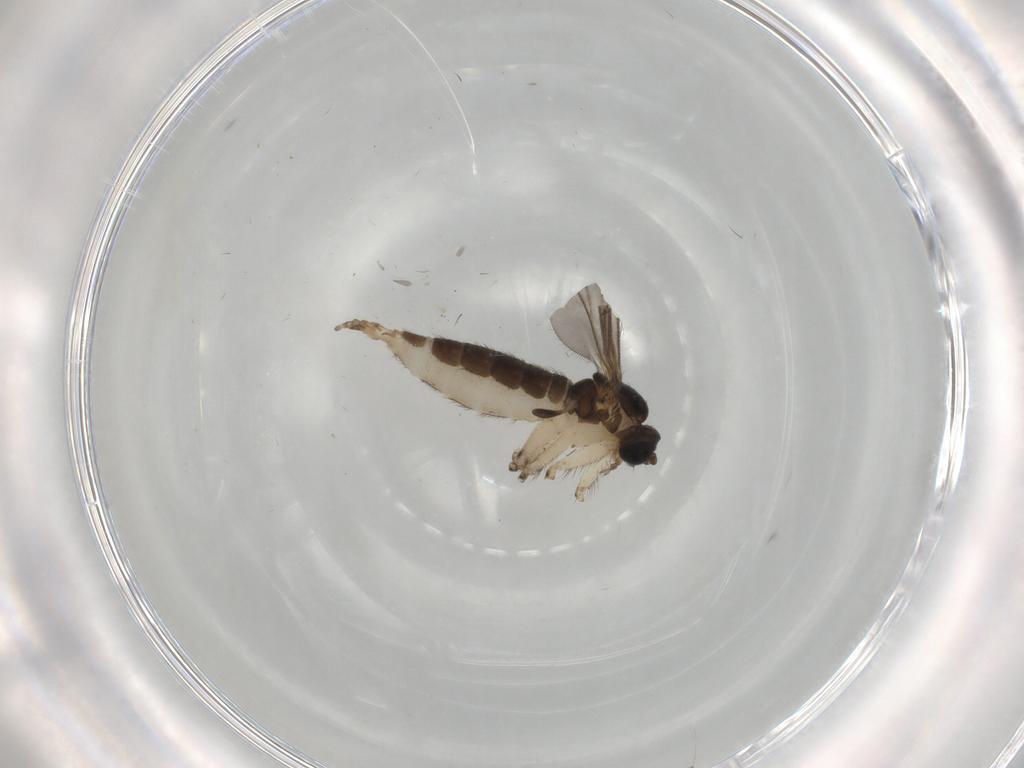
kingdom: Animalia
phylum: Arthropoda
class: Insecta
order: Diptera
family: Sciaridae
